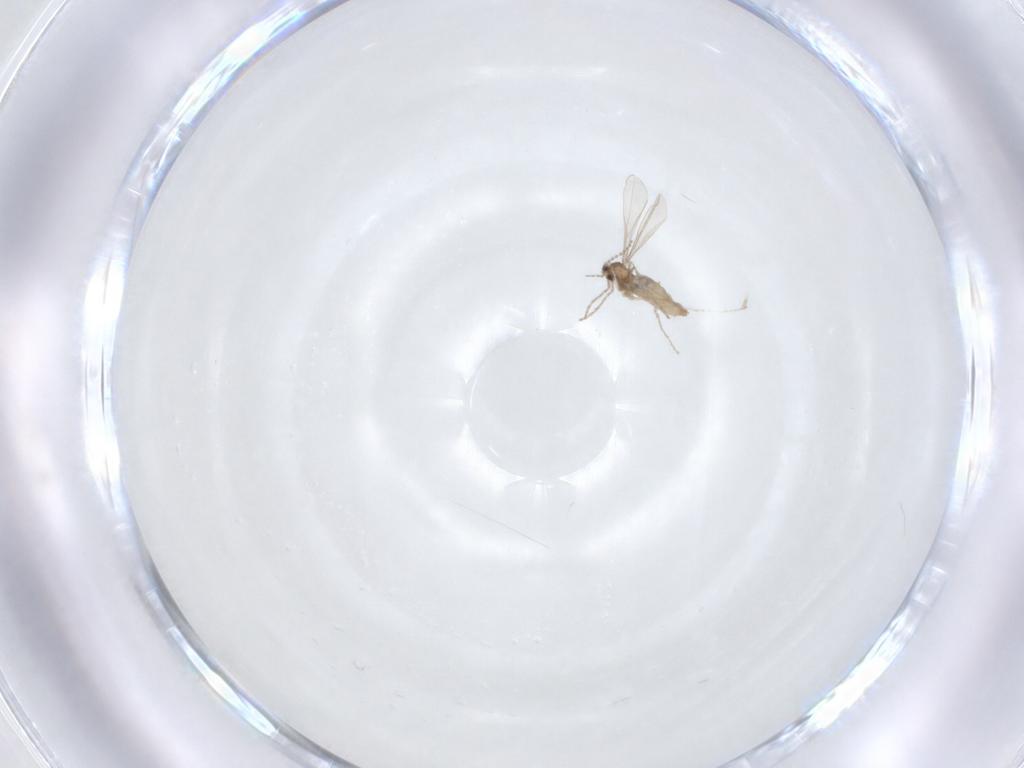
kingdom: Animalia
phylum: Arthropoda
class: Insecta
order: Diptera
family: Cecidomyiidae
